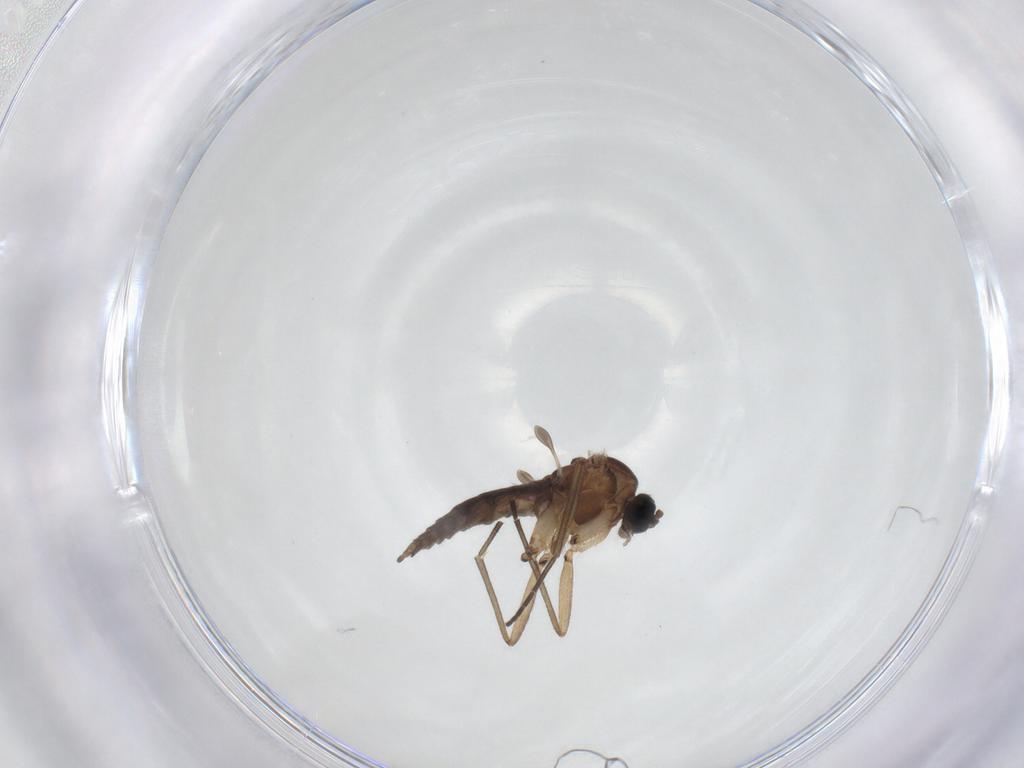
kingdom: Animalia
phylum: Arthropoda
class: Insecta
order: Diptera
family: Sciaridae
